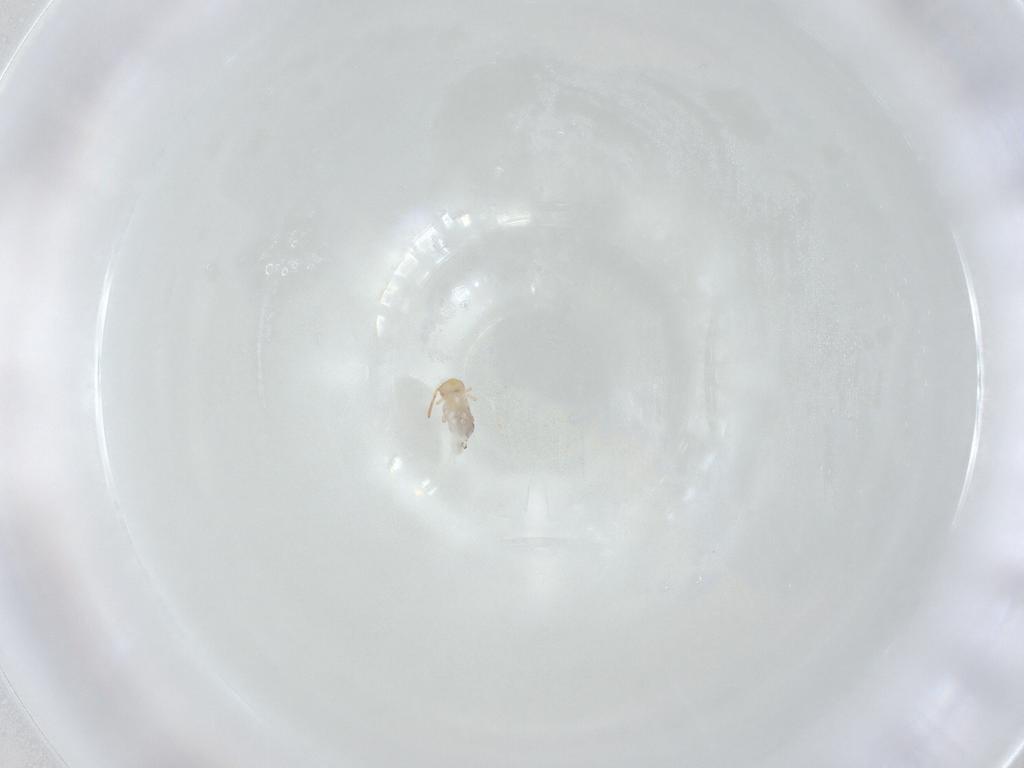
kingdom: Animalia
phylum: Arthropoda
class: Collembola
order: Symphypleona
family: Bourletiellidae
